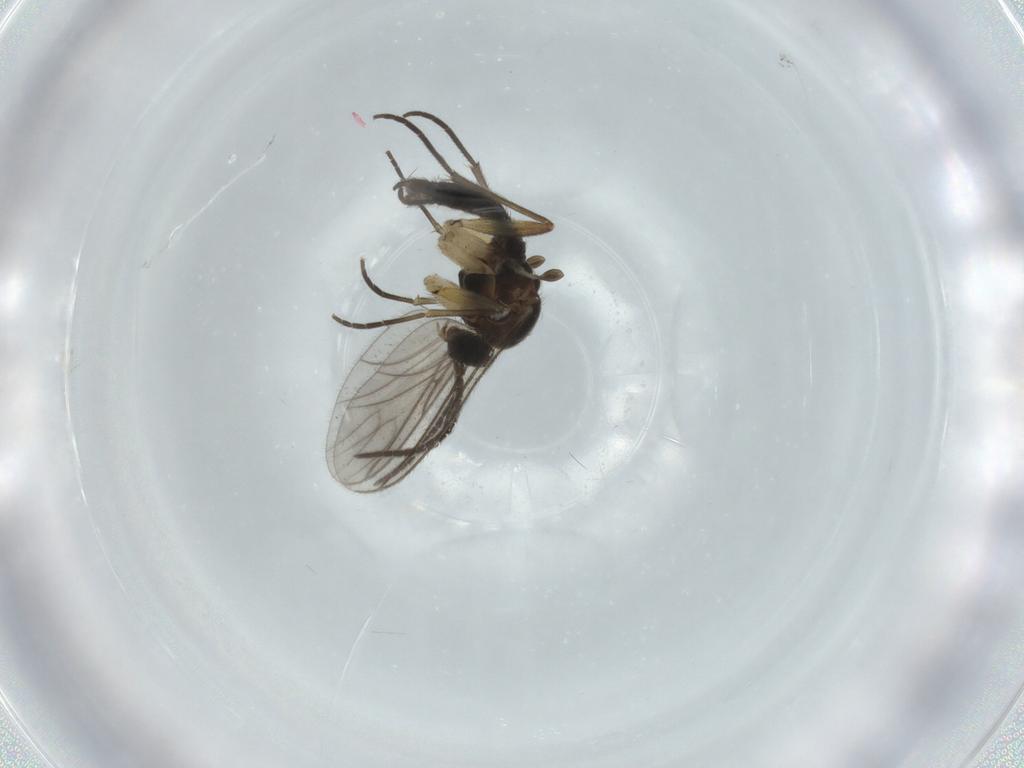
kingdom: Animalia
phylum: Arthropoda
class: Insecta
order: Diptera
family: Sciaridae
